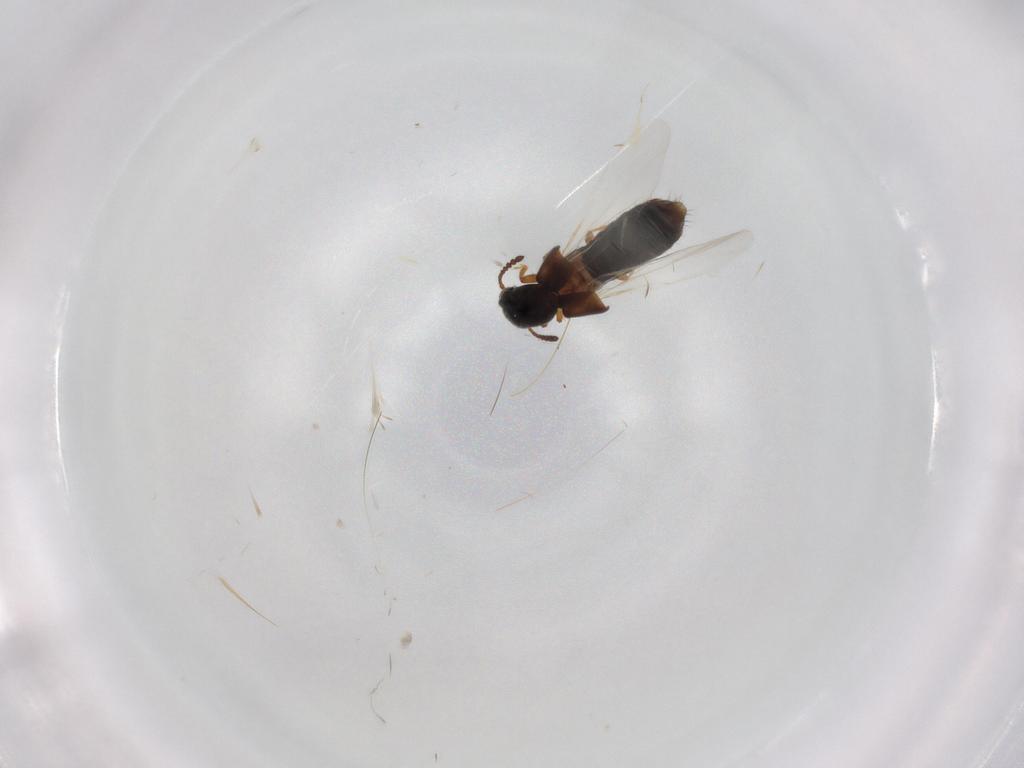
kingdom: Animalia
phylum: Arthropoda
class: Insecta
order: Coleoptera
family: Staphylinidae
